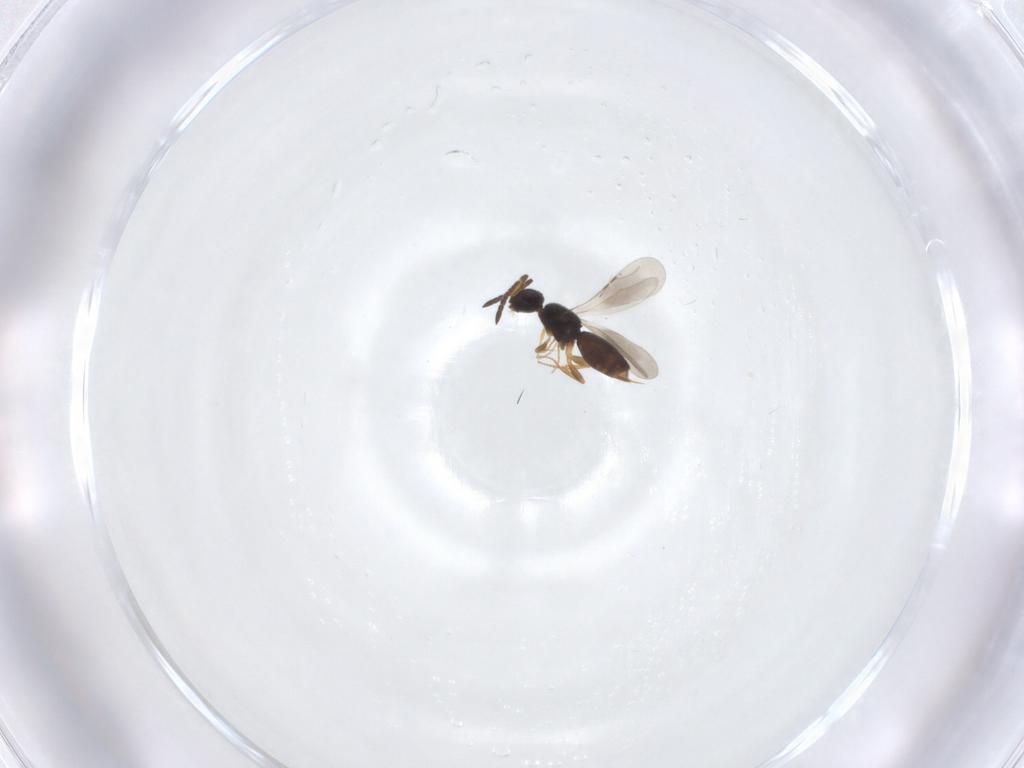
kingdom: Animalia
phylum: Arthropoda
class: Insecta
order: Hymenoptera
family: Ceraphronidae
